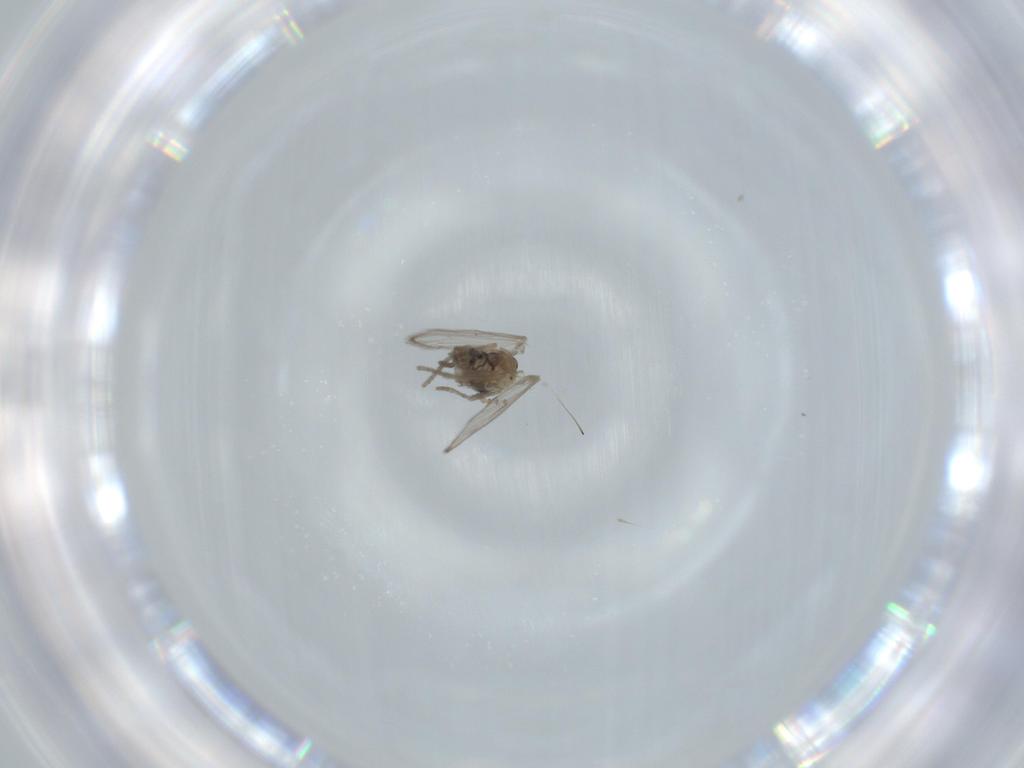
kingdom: Animalia
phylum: Arthropoda
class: Insecta
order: Diptera
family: Psychodidae
